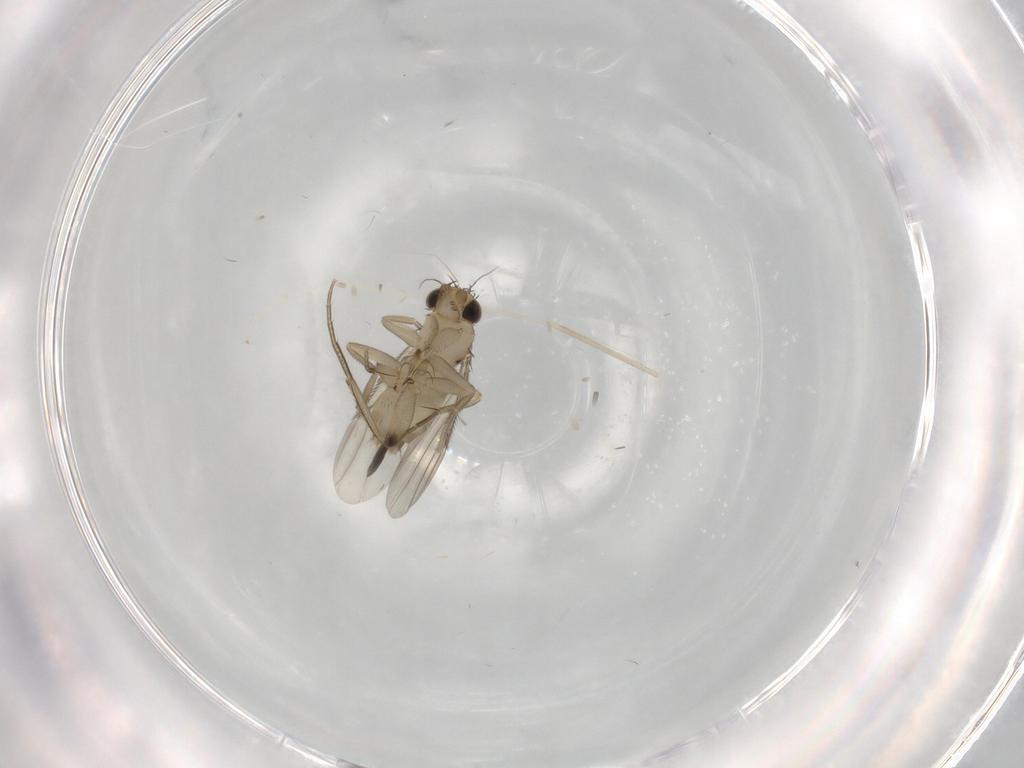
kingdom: Animalia
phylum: Arthropoda
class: Insecta
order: Diptera
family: Phoridae
